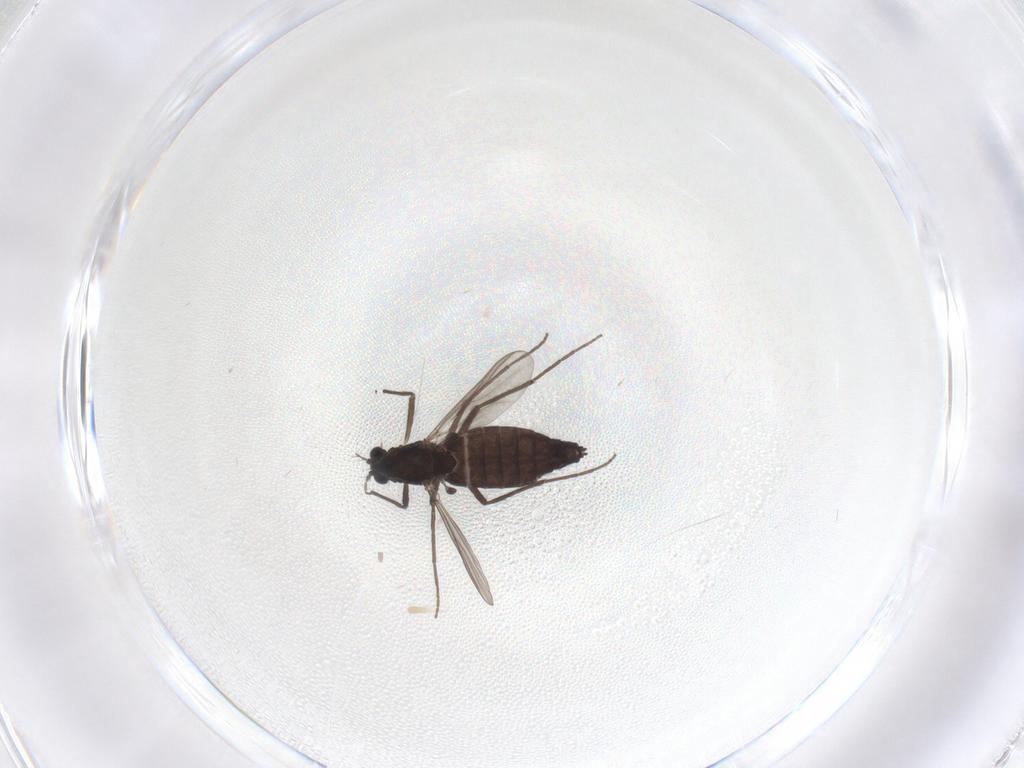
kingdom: Animalia
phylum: Arthropoda
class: Insecta
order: Diptera
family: Chironomidae
